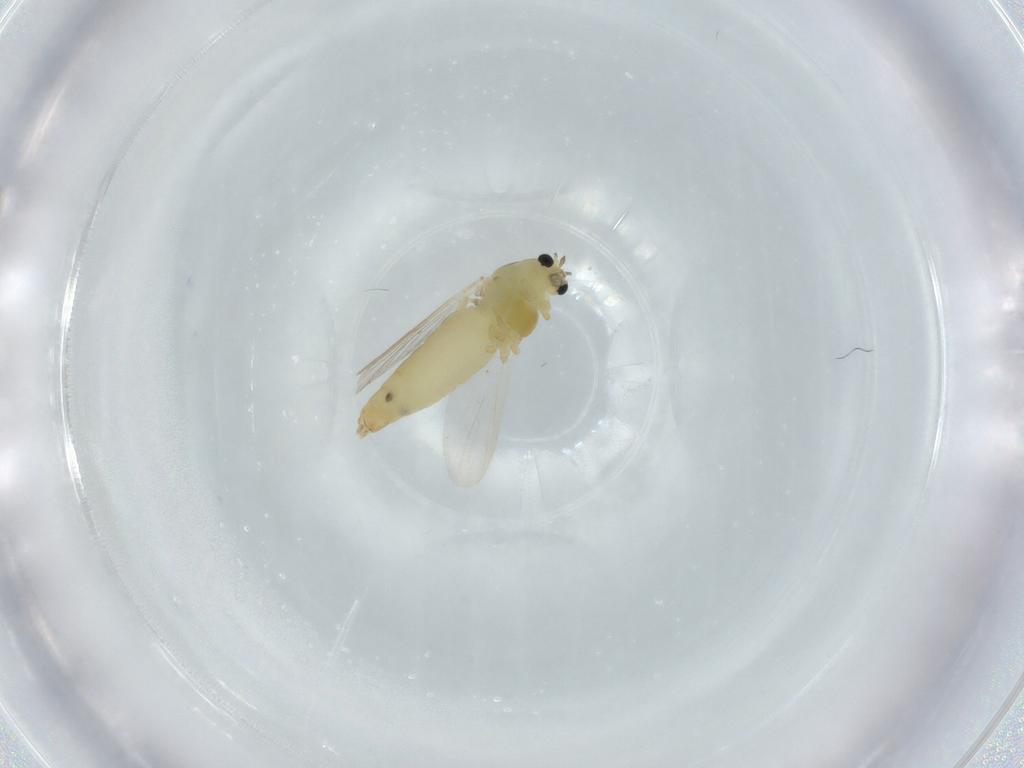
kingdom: Animalia
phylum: Arthropoda
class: Insecta
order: Diptera
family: Chironomidae
